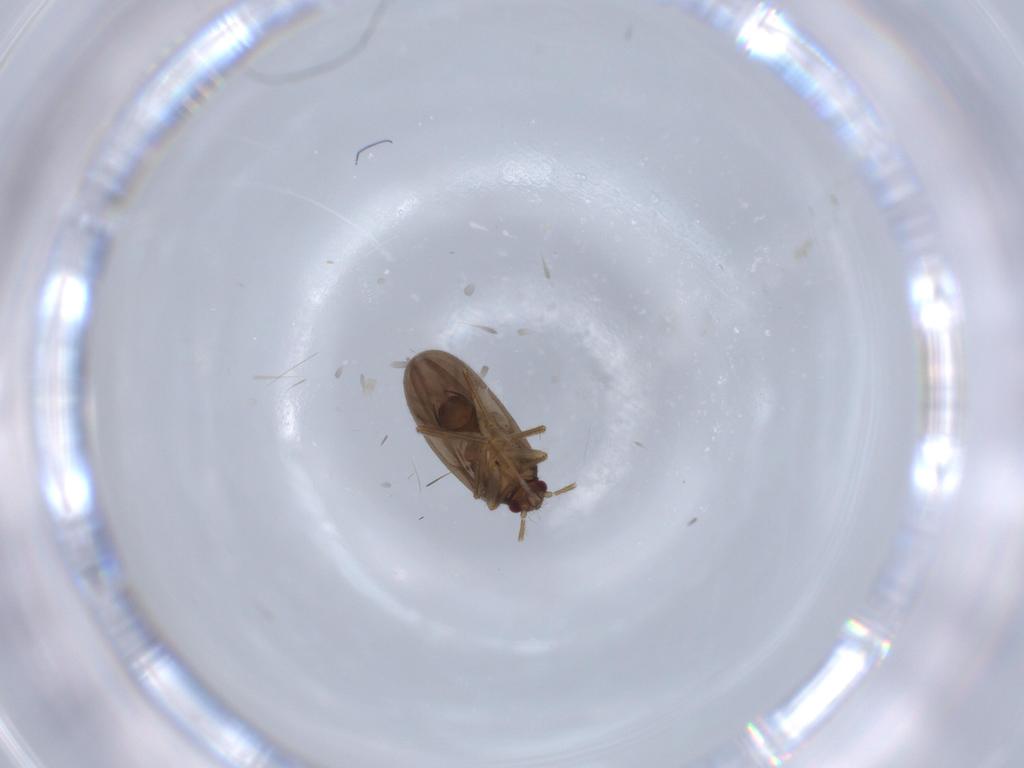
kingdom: Animalia
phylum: Arthropoda
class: Insecta
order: Hemiptera
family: Ceratocombidae
